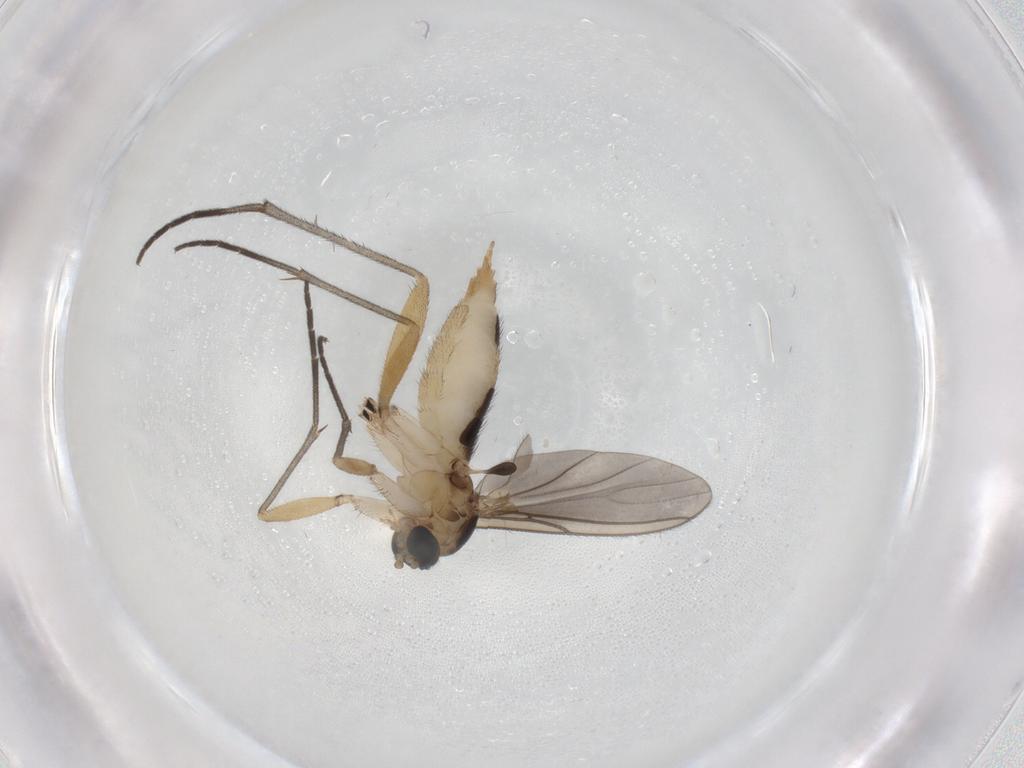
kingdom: Animalia
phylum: Arthropoda
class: Insecta
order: Diptera
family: Sciaridae
